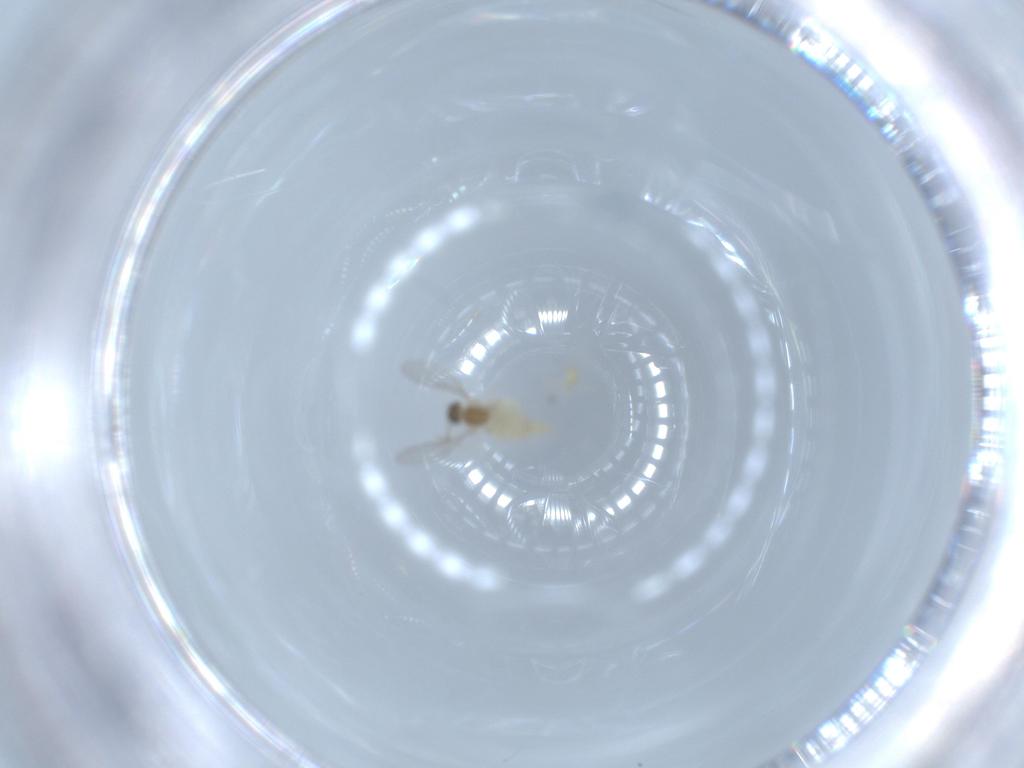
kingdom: Animalia
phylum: Arthropoda
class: Insecta
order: Diptera
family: Cecidomyiidae
